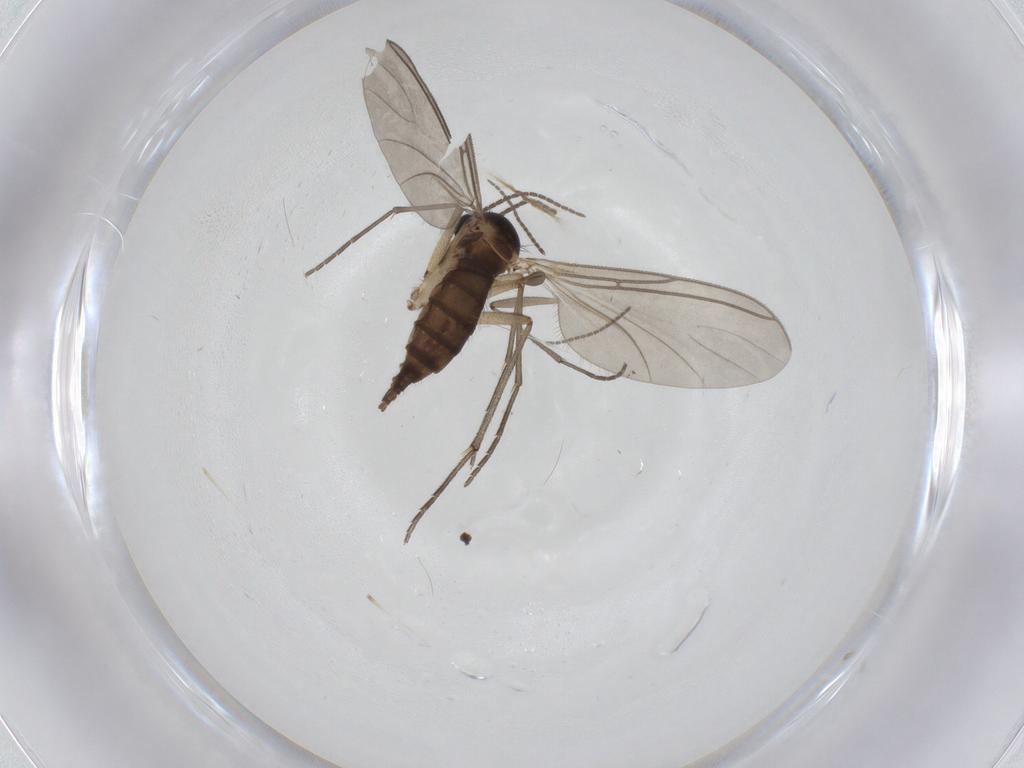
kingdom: Animalia
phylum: Arthropoda
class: Insecta
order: Diptera
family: Sciaridae
